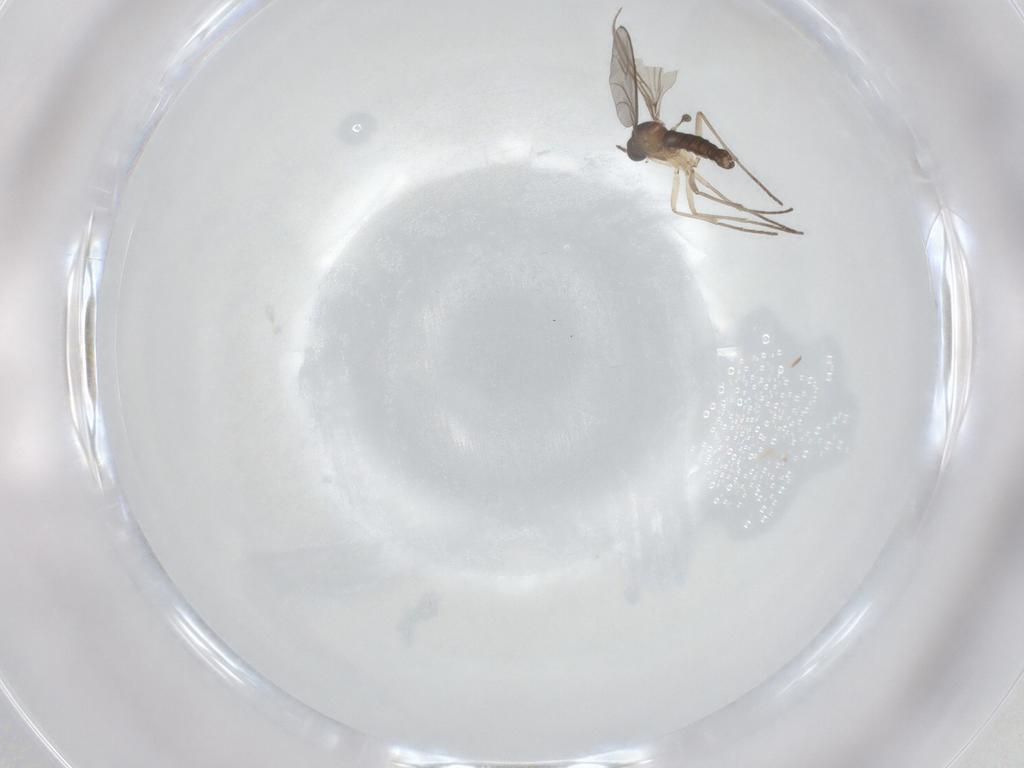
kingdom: Animalia
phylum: Arthropoda
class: Insecta
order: Diptera
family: Sciaridae
